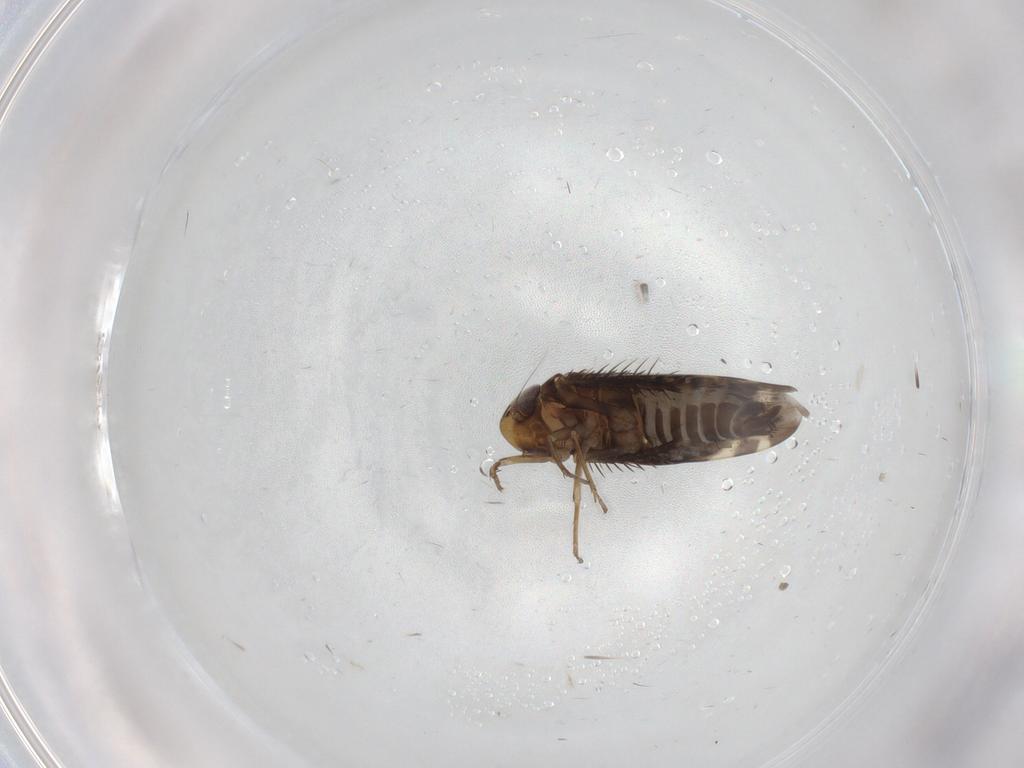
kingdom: Animalia
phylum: Arthropoda
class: Insecta
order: Hemiptera
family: Cicadellidae
